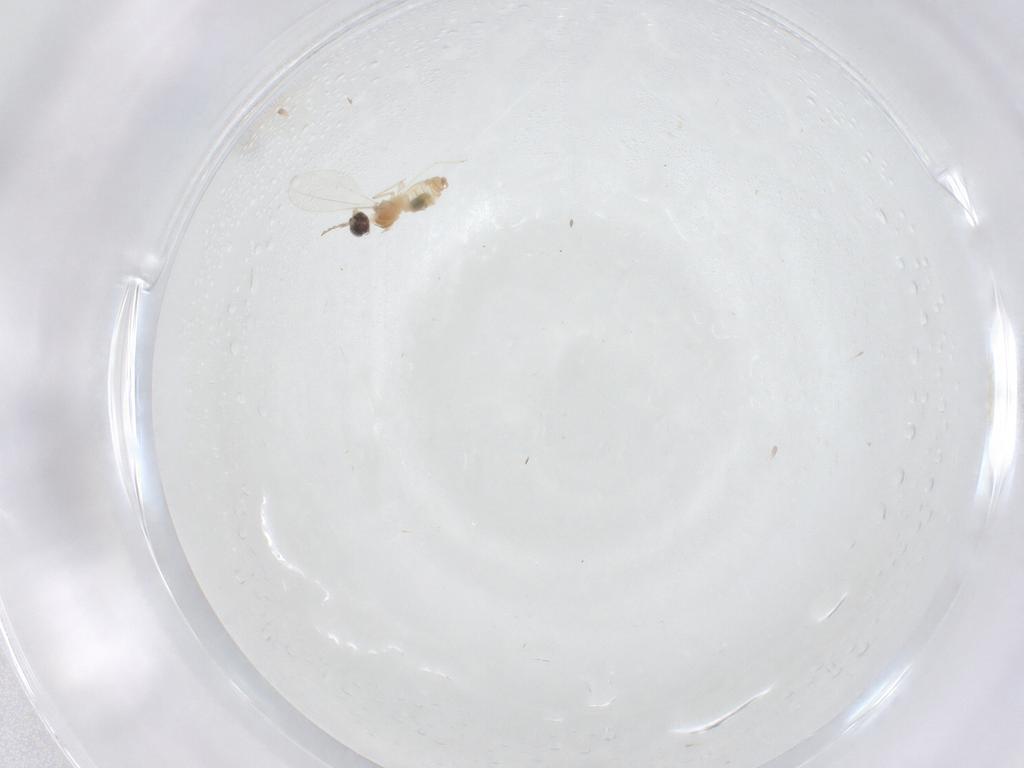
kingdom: Animalia
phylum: Arthropoda
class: Insecta
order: Diptera
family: Cecidomyiidae
